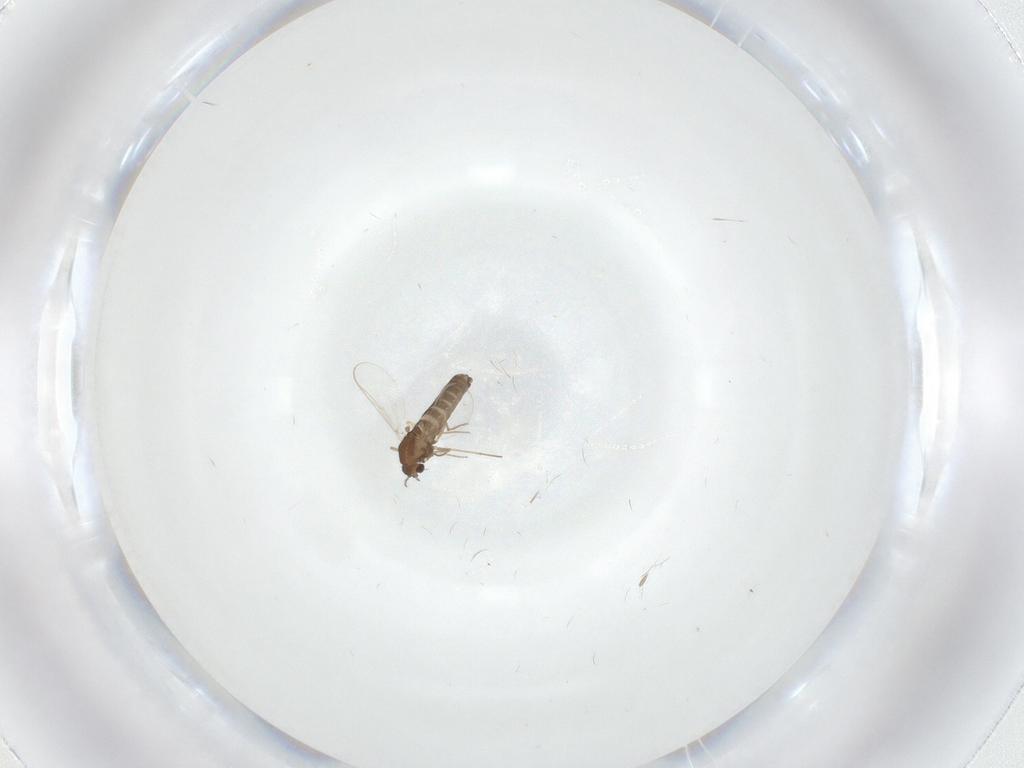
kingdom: Animalia
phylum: Arthropoda
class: Insecta
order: Diptera
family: Chironomidae
